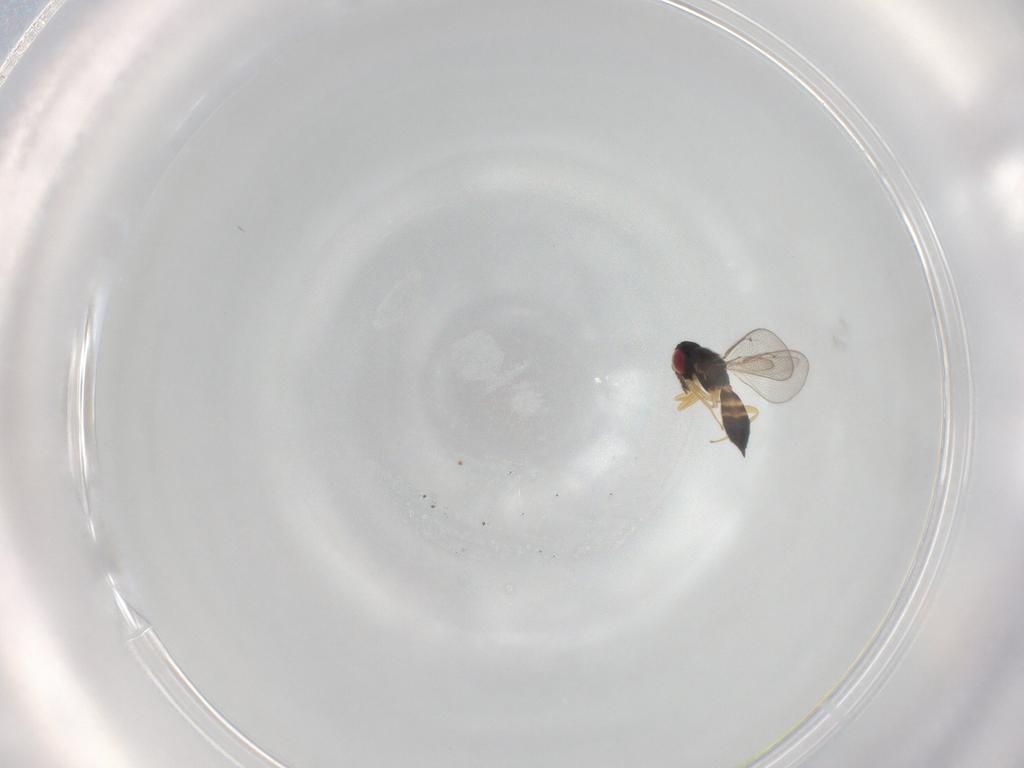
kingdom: Animalia
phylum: Arthropoda
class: Insecta
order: Hymenoptera
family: Eulophidae
